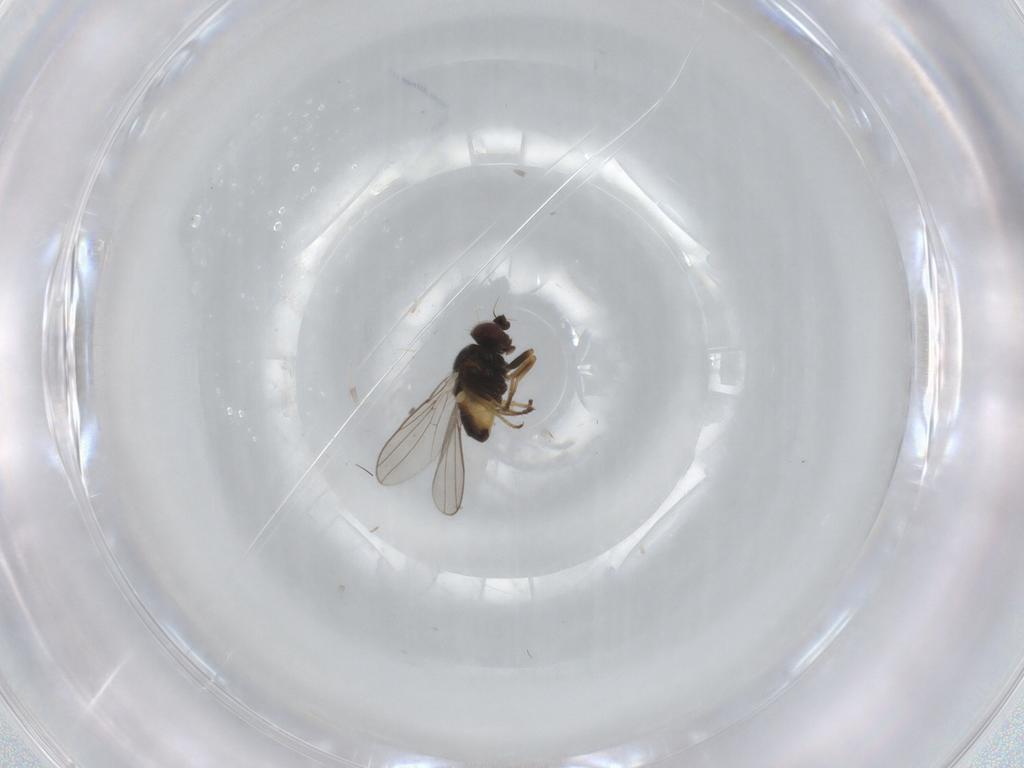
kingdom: Animalia
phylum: Arthropoda
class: Insecta
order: Diptera
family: Chloropidae
